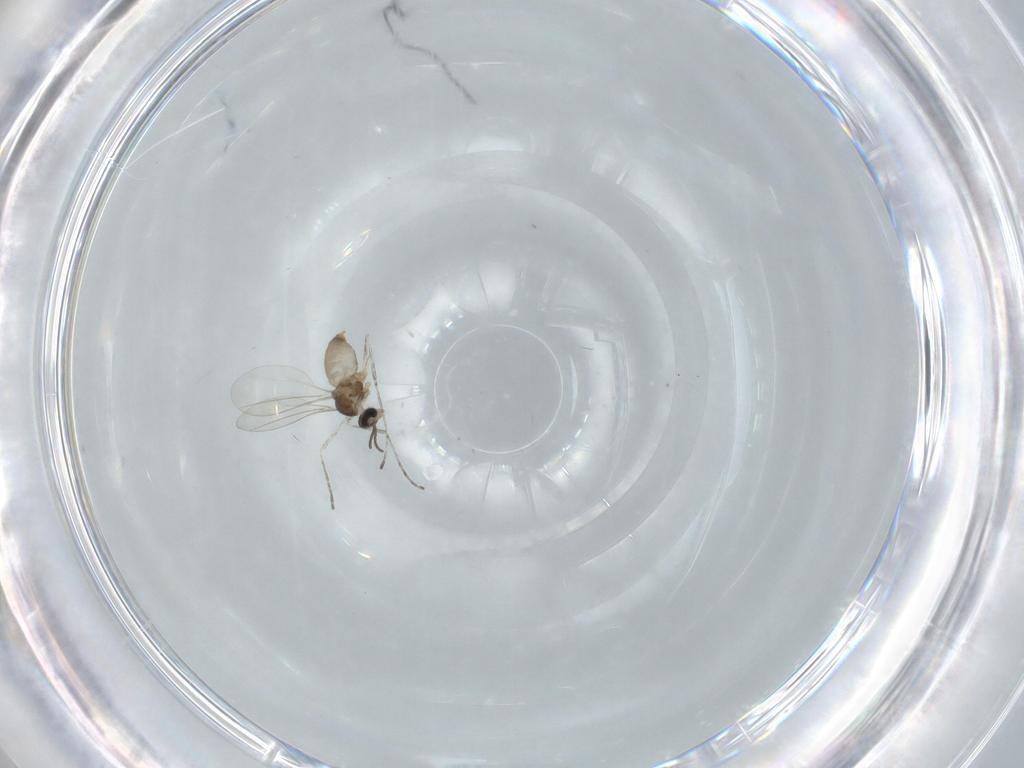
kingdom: Animalia
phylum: Arthropoda
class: Insecta
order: Diptera
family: Cecidomyiidae
